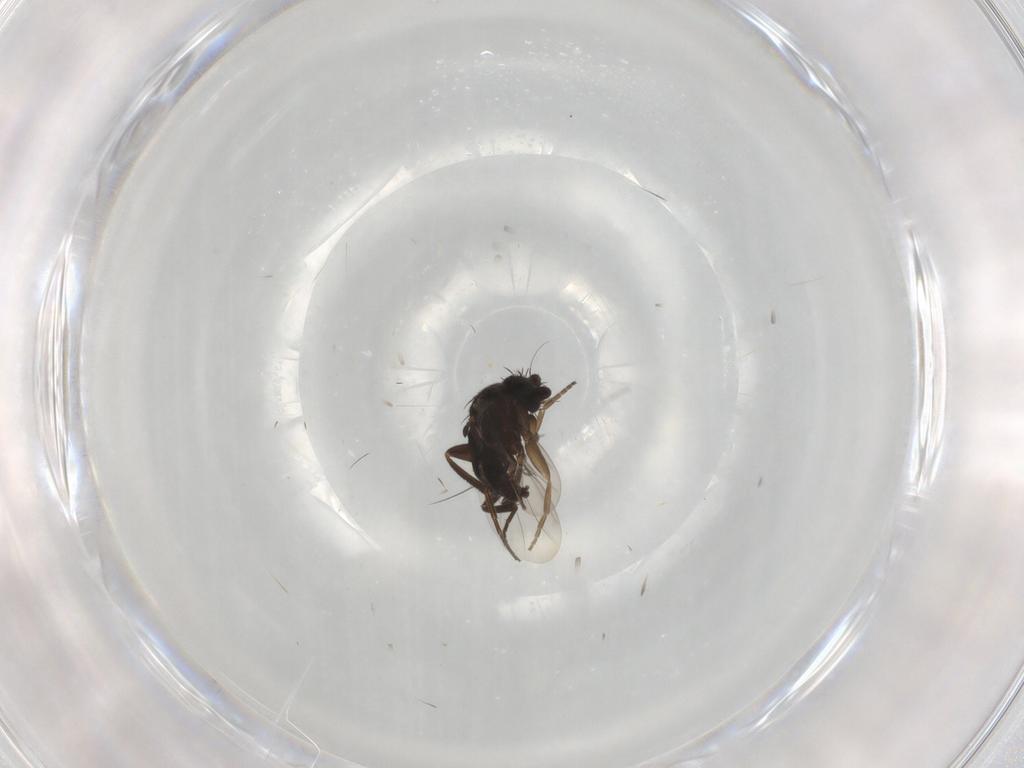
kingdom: Animalia
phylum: Arthropoda
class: Insecta
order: Diptera
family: Phoridae
